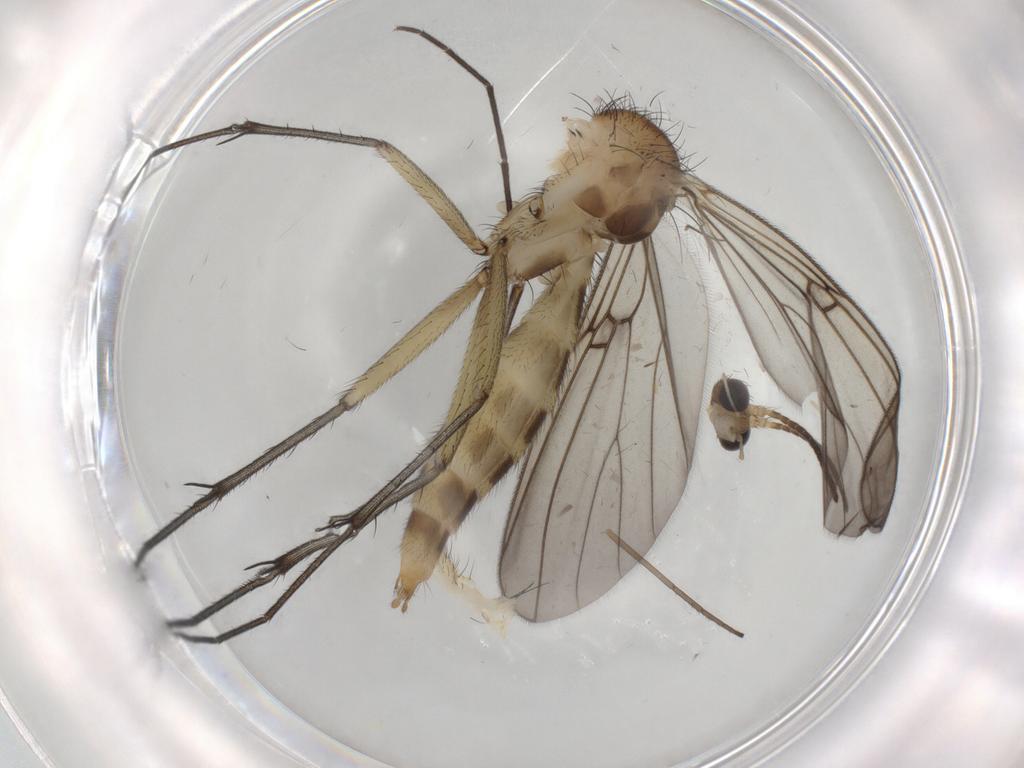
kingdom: Animalia
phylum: Arthropoda
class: Insecta
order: Diptera
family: Mycetophilidae
